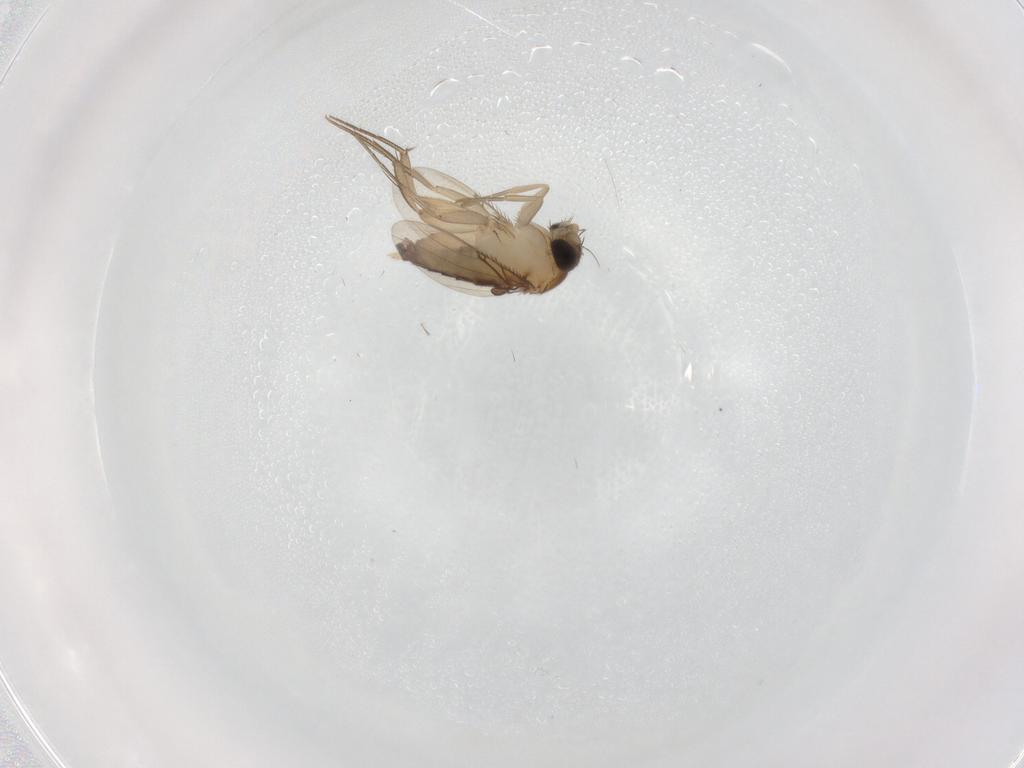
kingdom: Animalia
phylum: Arthropoda
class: Insecta
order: Diptera
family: Phoridae
